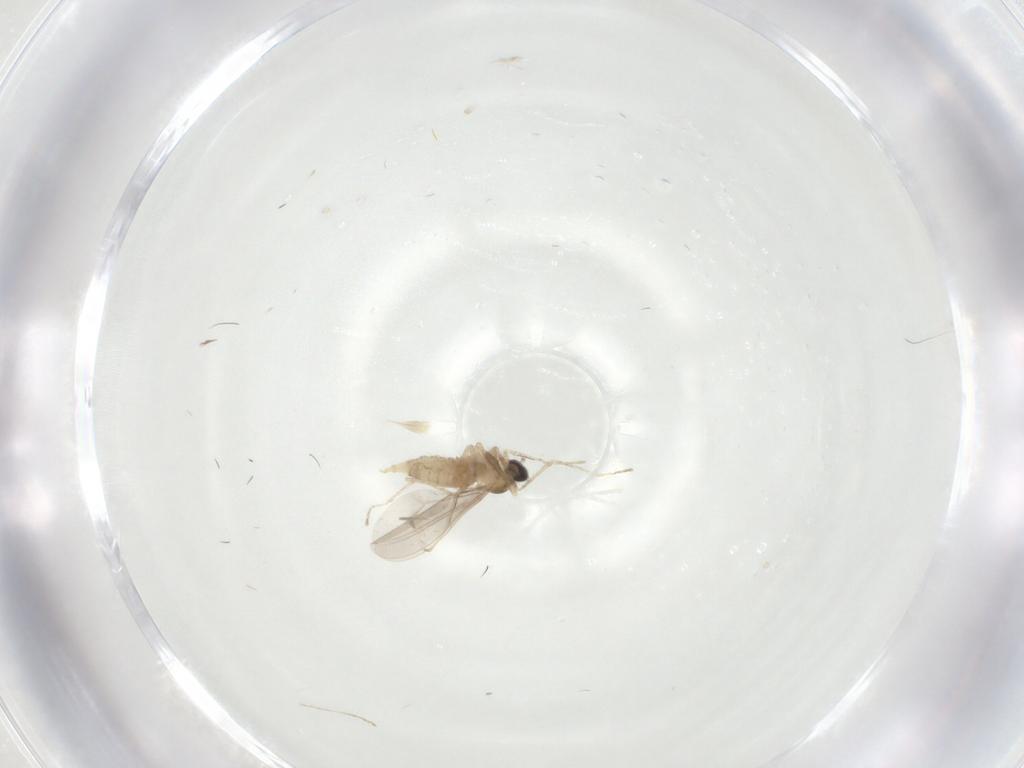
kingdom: Animalia
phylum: Arthropoda
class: Insecta
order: Diptera
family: Cecidomyiidae
